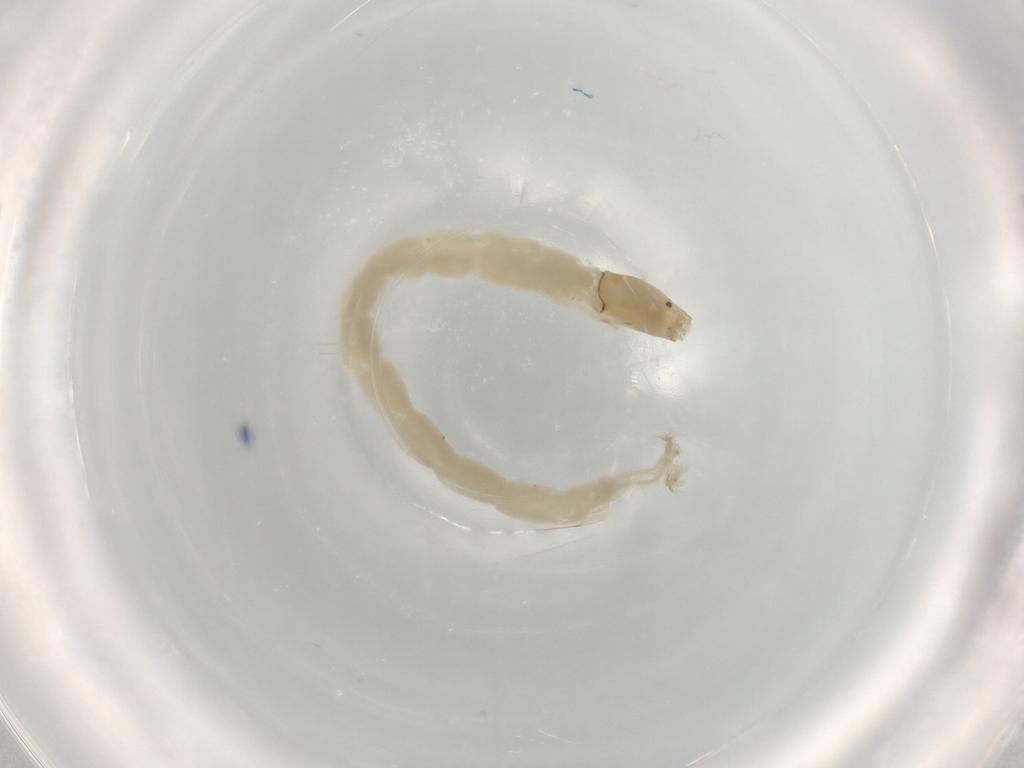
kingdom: Animalia
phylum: Arthropoda
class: Insecta
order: Diptera
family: Chironomidae
